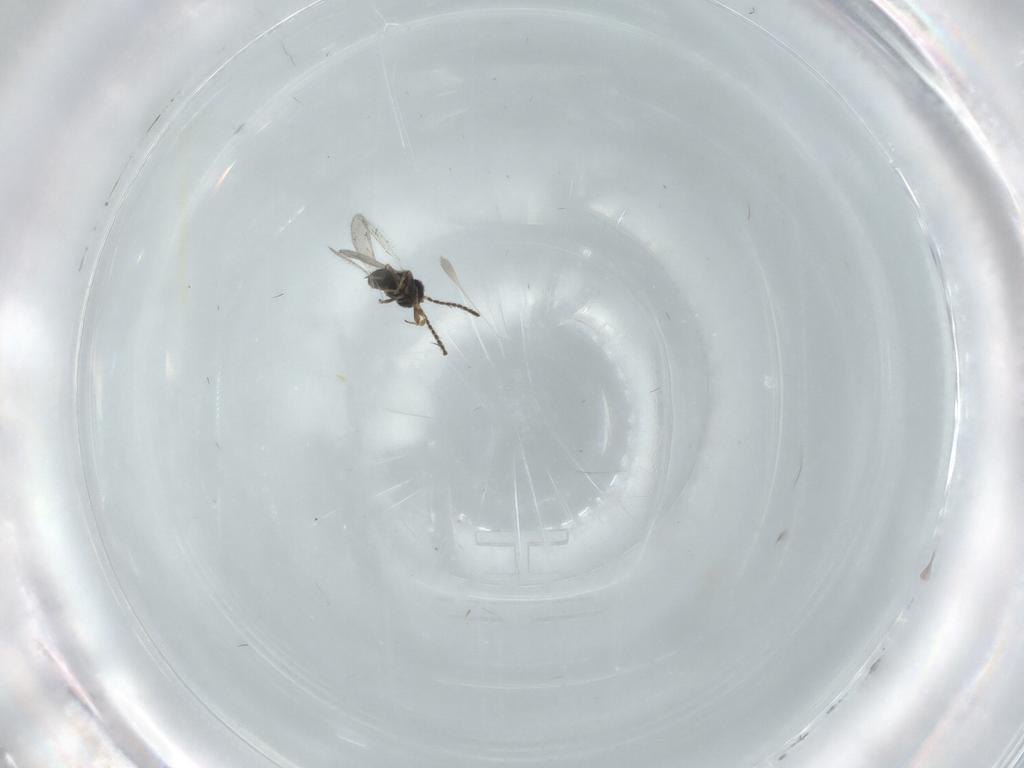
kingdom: Animalia
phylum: Arthropoda
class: Insecta
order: Hymenoptera
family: Scelionidae
